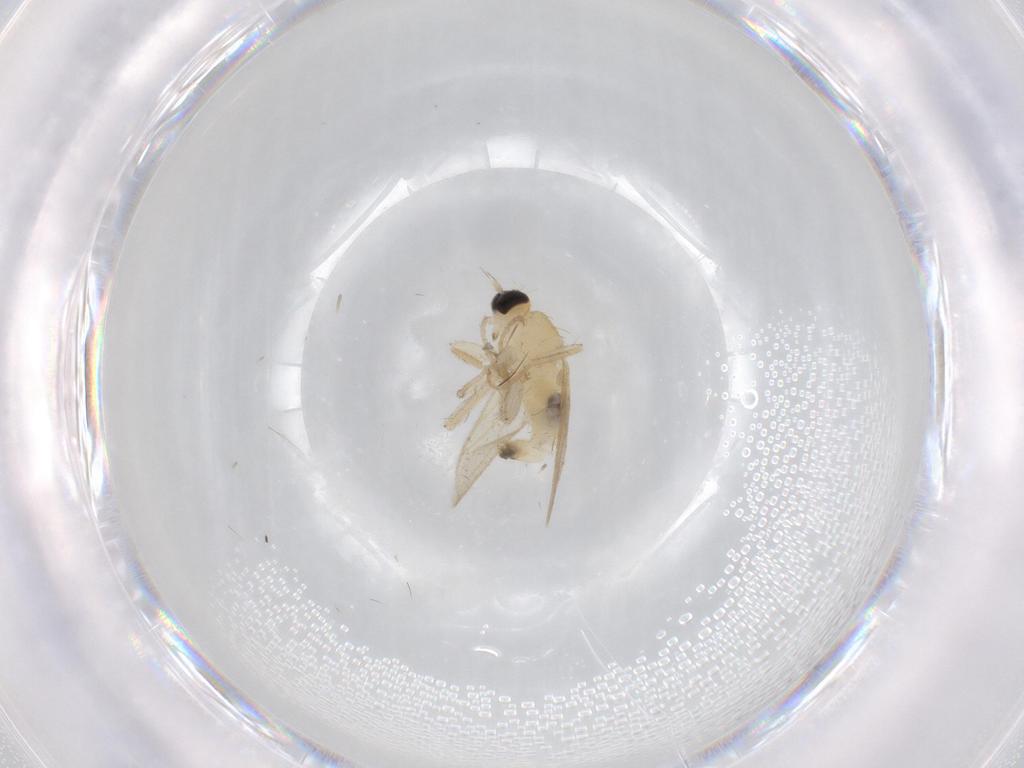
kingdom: Animalia
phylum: Arthropoda
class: Insecta
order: Diptera
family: Hybotidae
